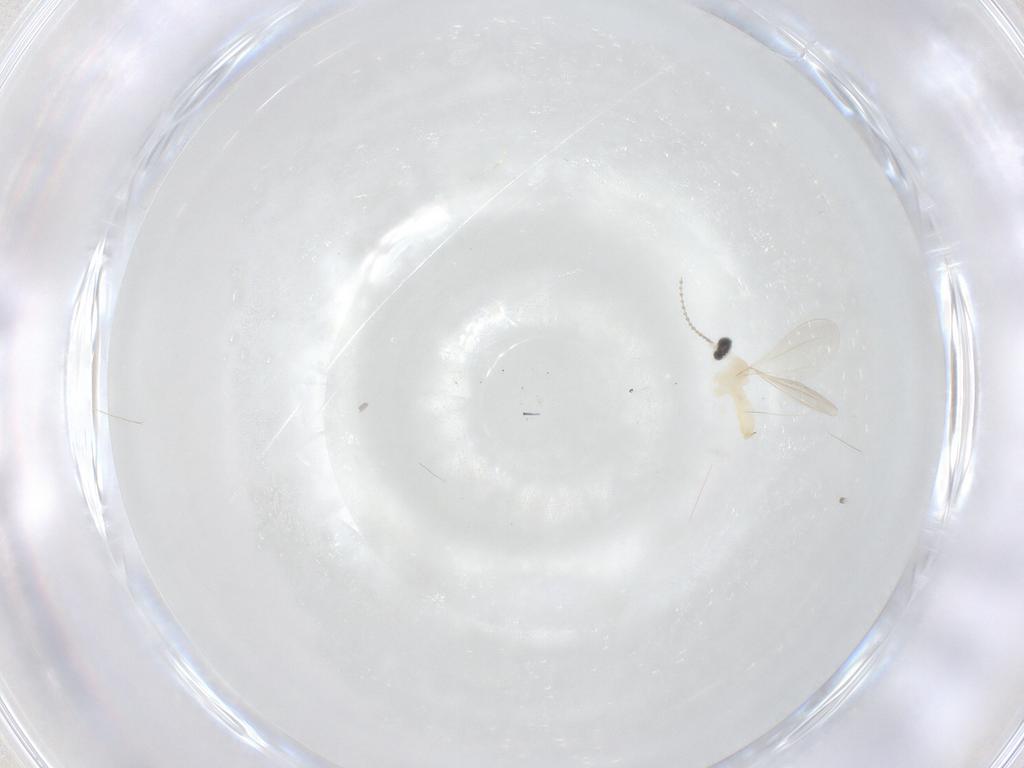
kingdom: Animalia
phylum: Arthropoda
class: Insecta
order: Diptera
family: Cecidomyiidae
